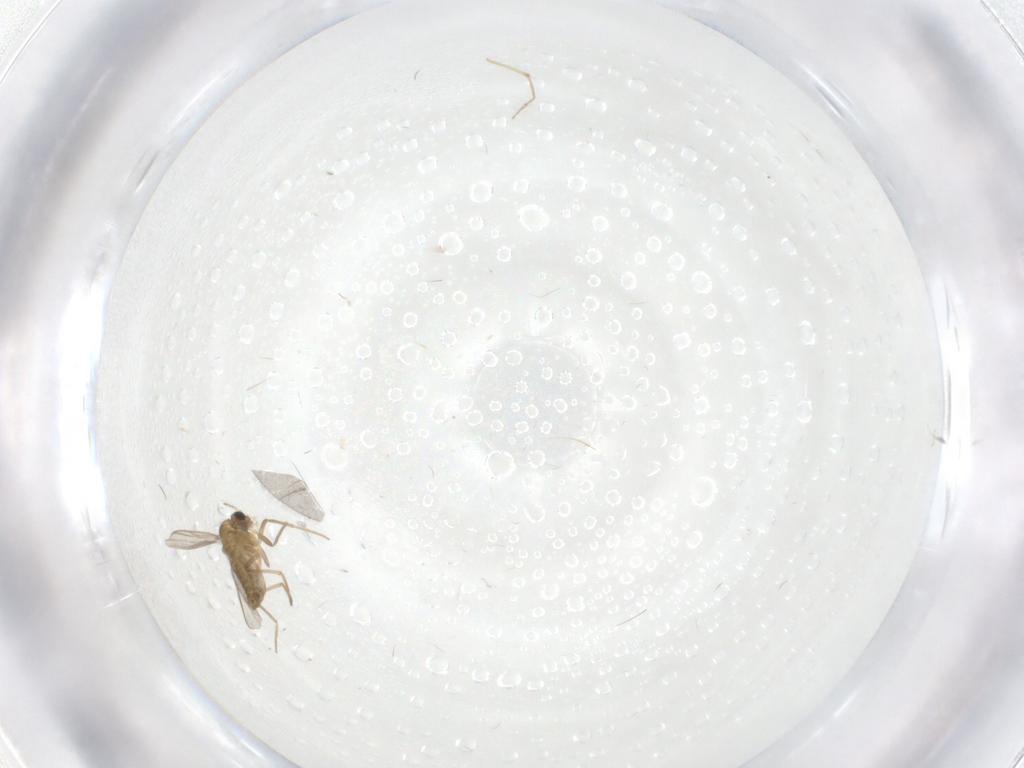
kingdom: Animalia
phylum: Arthropoda
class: Insecta
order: Diptera
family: Chironomidae
